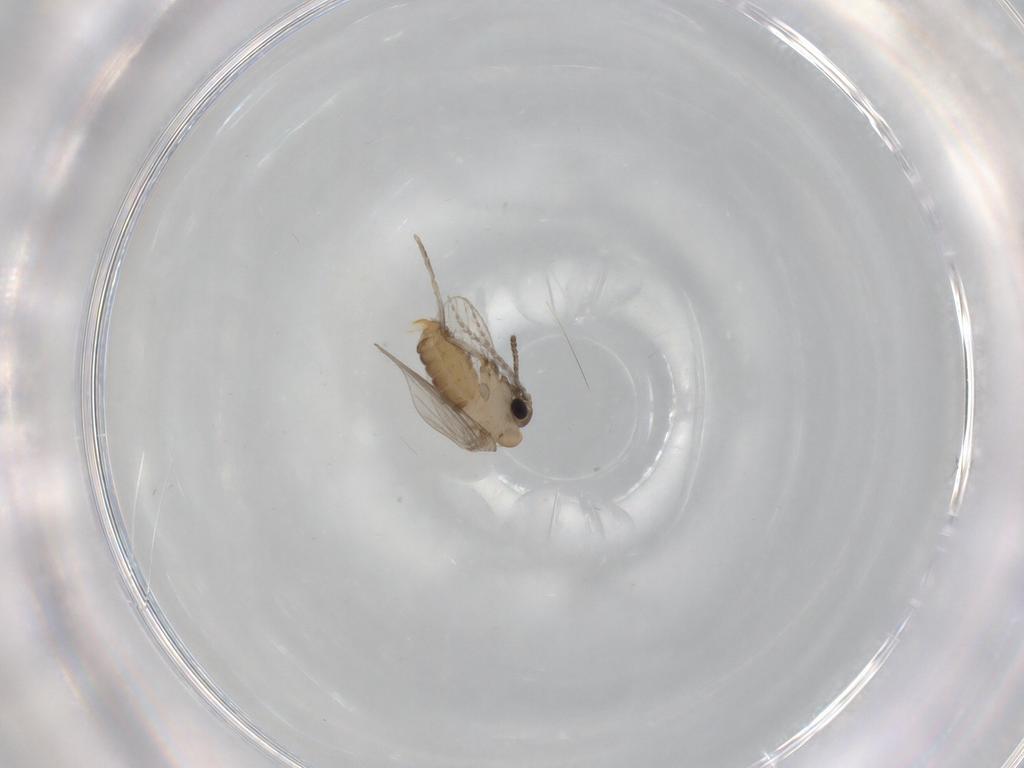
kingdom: Animalia
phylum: Arthropoda
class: Insecta
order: Diptera
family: Psychodidae
